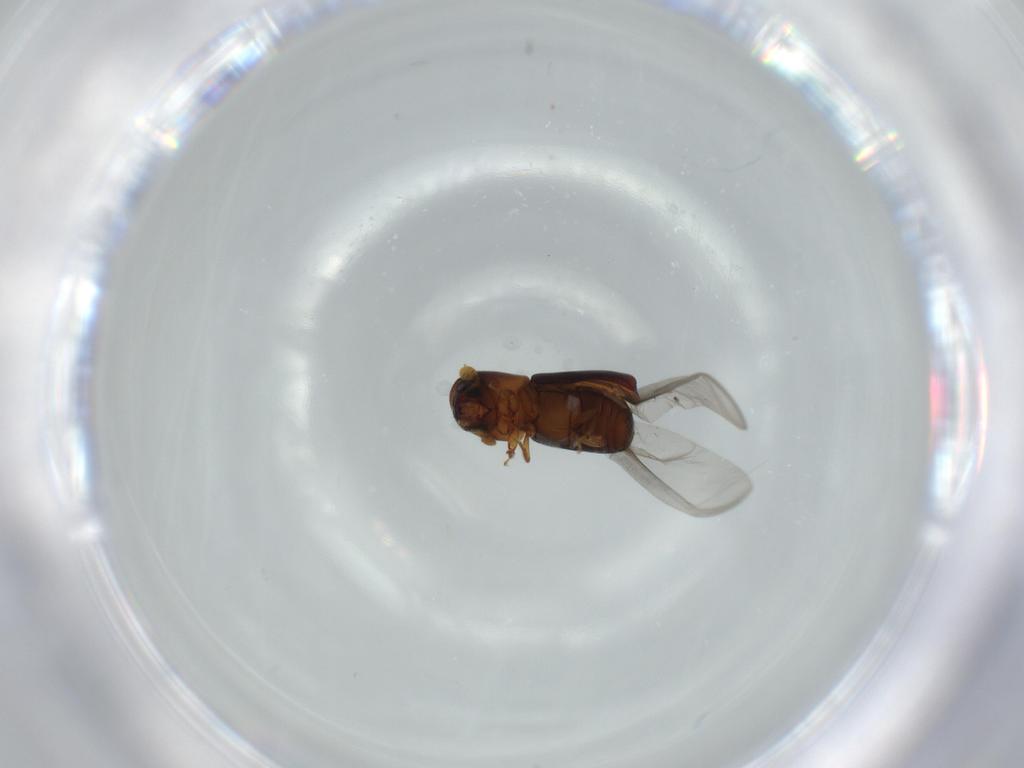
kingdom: Animalia
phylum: Arthropoda
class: Insecta
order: Coleoptera
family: Curculionidae
